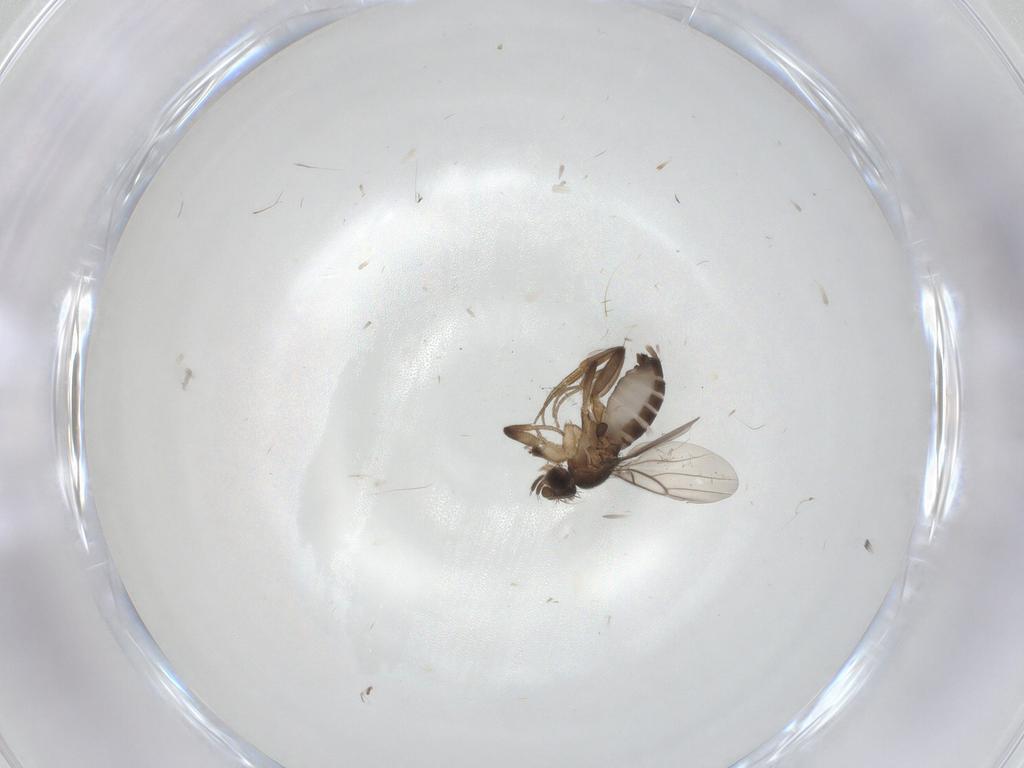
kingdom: Animalia
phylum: Arthropoda
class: Insecta
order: Diptera
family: Cecidomyiidae
